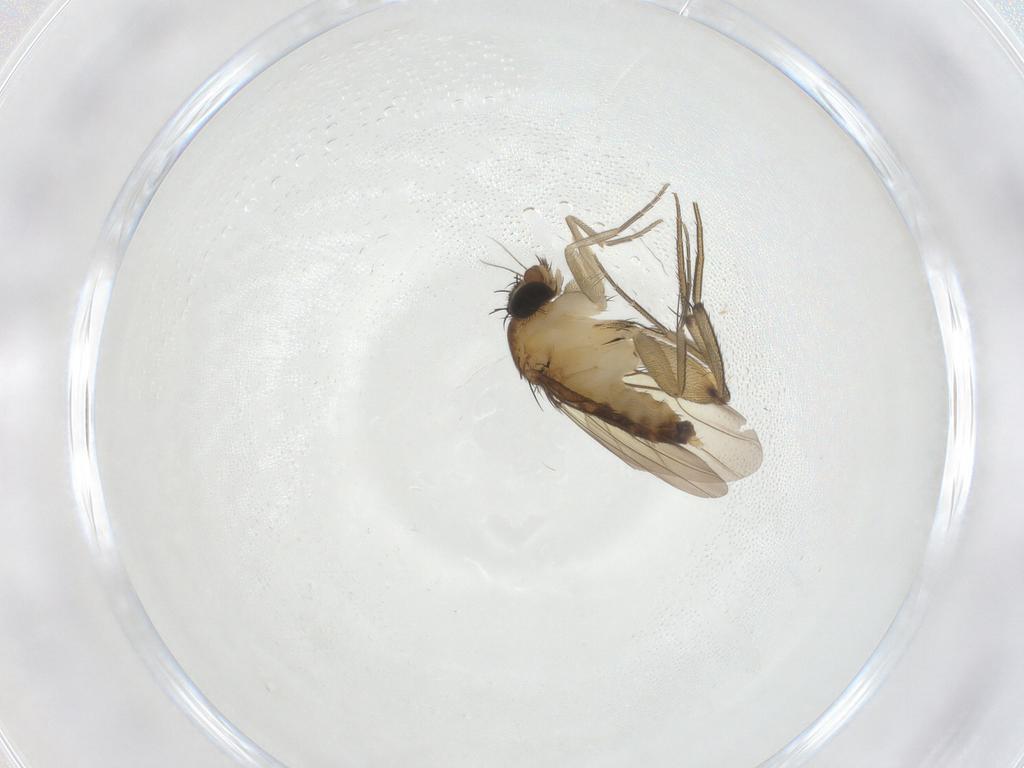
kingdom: Animalia
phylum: Arthropoda
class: Insecta
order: Diptera
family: Phoridae
